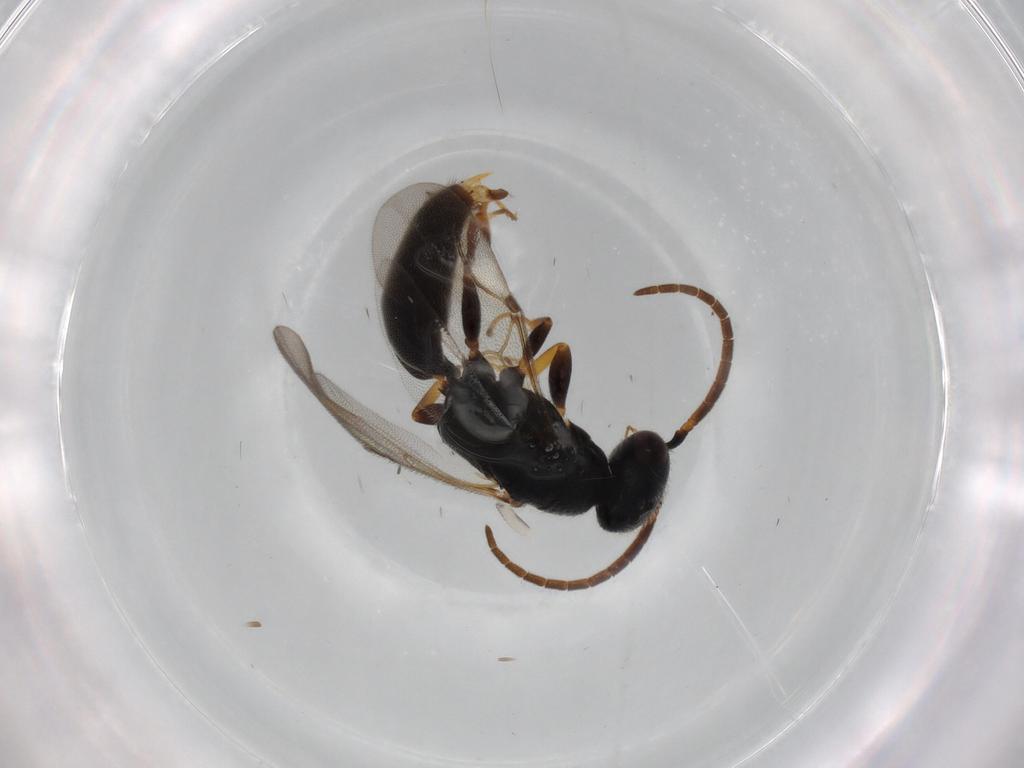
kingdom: Animalia
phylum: Arthropoda
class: Insecta
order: Hymenoptera
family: Bethylidae
